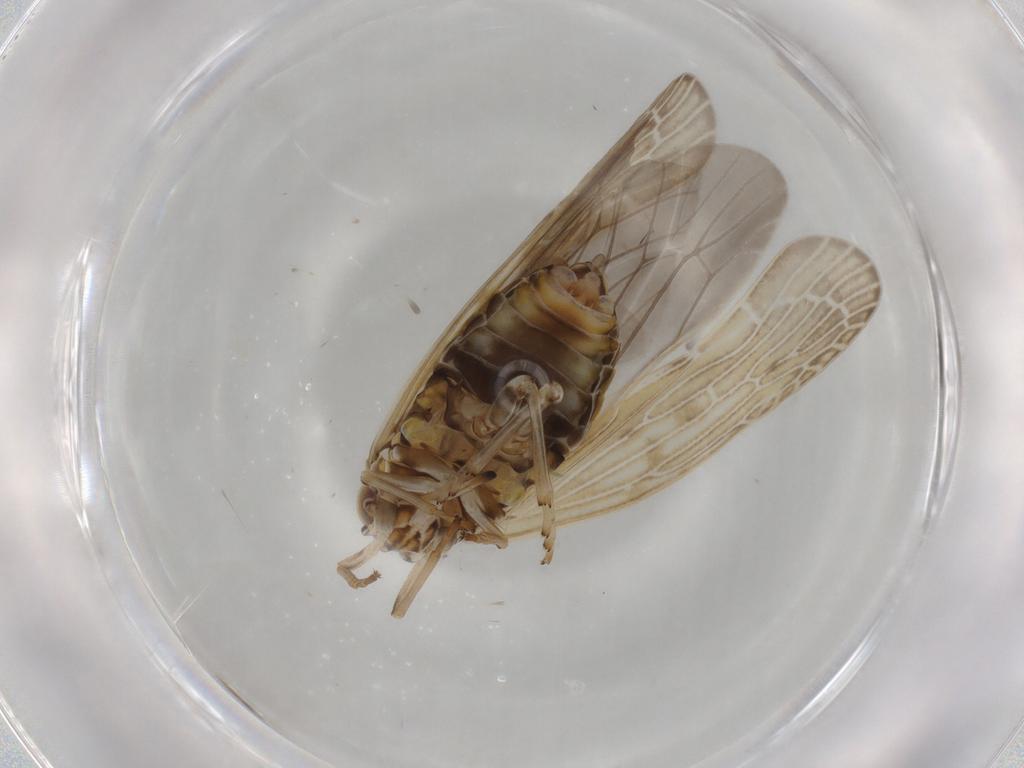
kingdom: Animalia
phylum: Arthropoda
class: Insecta
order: Hemiptera
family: Achilidae
